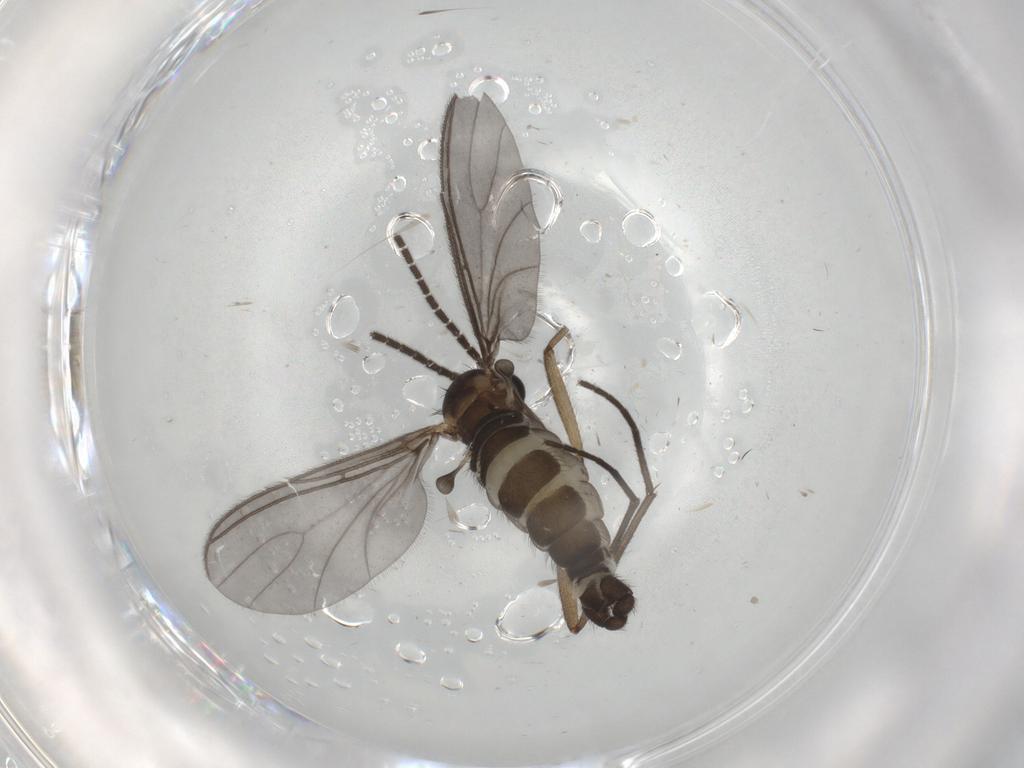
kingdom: Animalia
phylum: Arthropoda
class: Insecta
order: Diptera
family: Sciaridae
